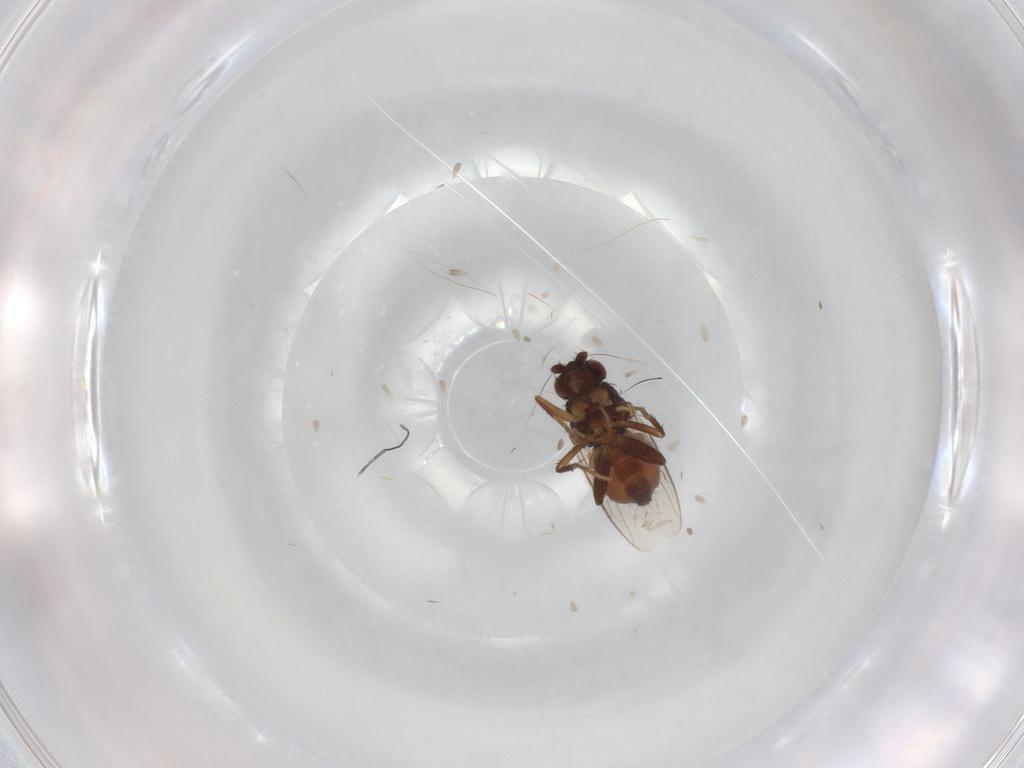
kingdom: Animalia
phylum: Arthropoda
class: Insecta
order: Diptera
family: Sphaeroceridae
